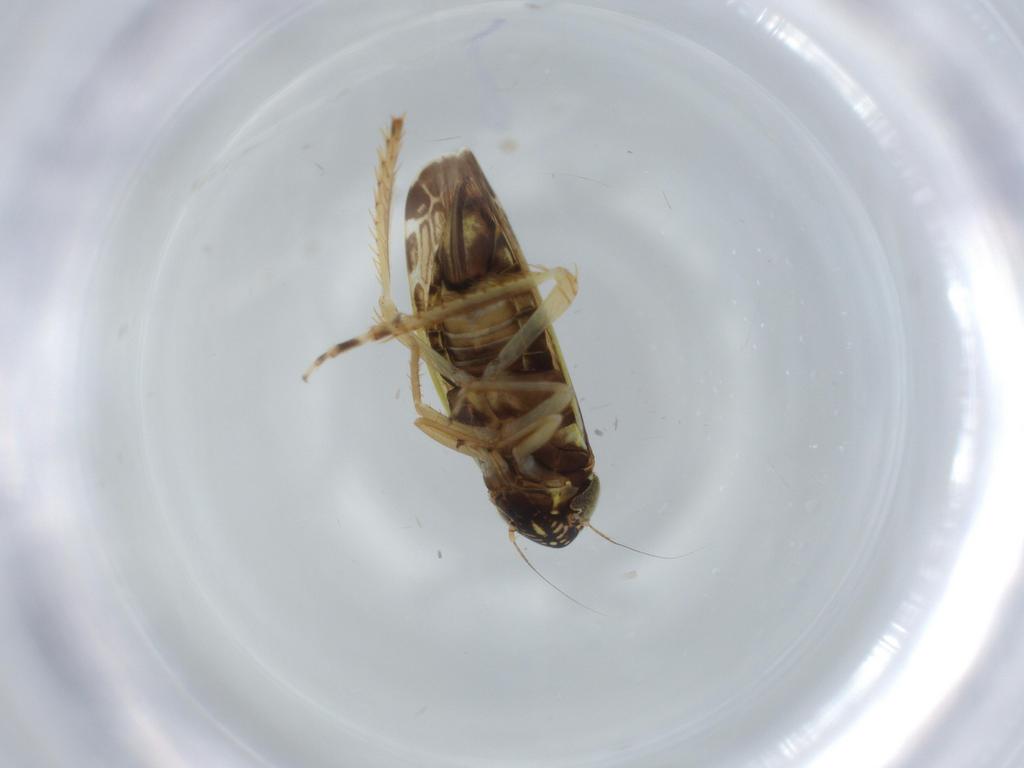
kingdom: Animalia
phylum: Arthropoda
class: Insecta
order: Hemiptera
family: Cicadellidae
